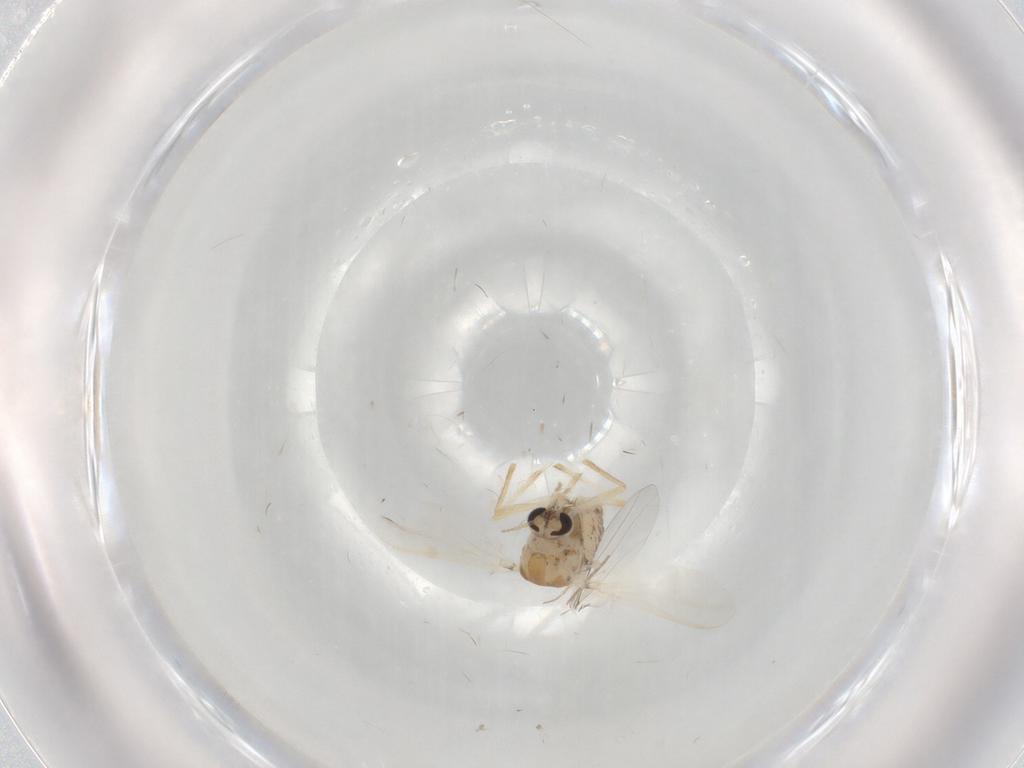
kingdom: Animalia
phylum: Arthropoda
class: Insecta
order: Diptera
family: Chironomidae
